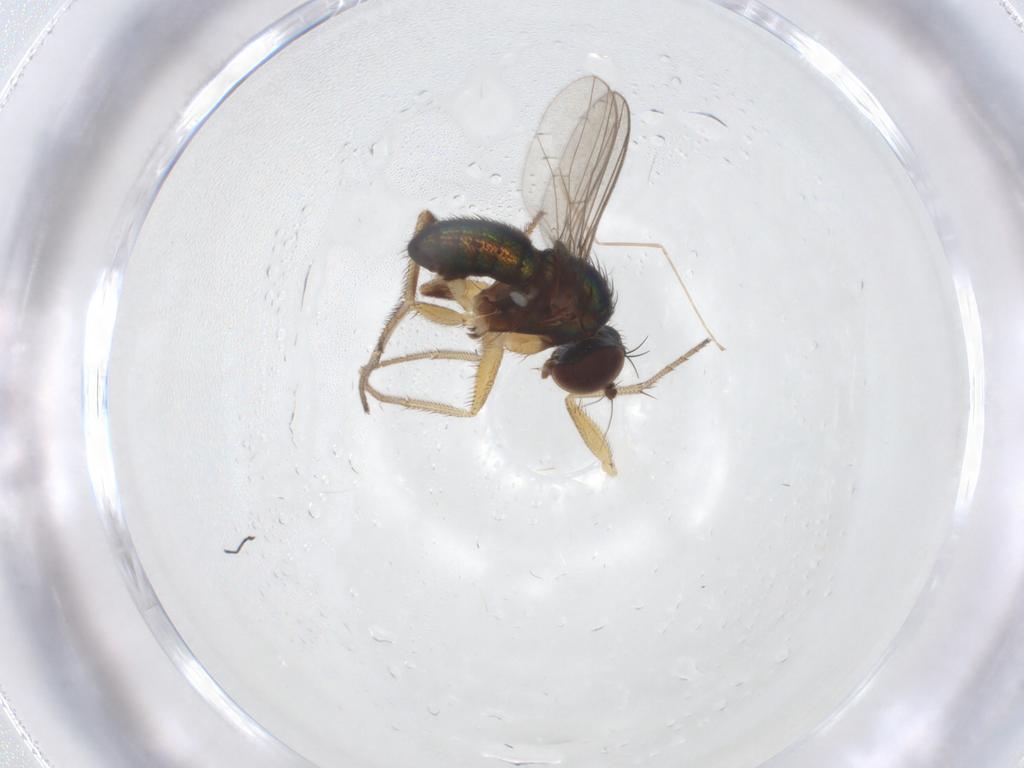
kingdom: Animalia
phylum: Arthropoda
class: Insecta
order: Diptera
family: Dolichopodidae
